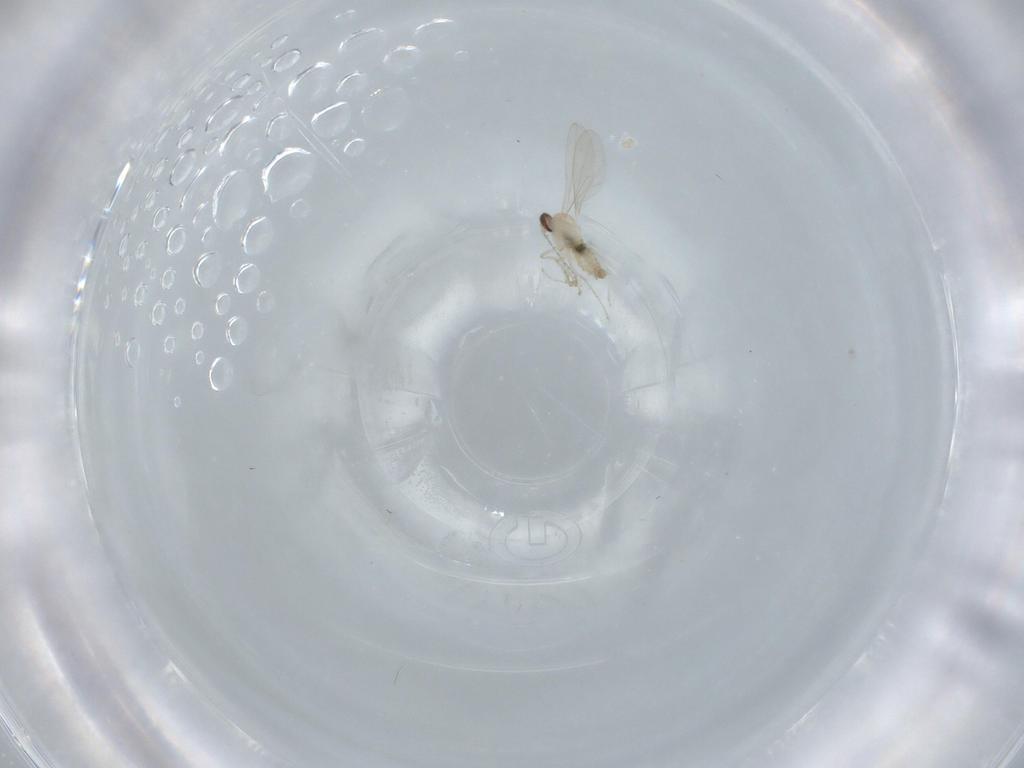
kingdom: Animalia
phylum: Arthropoda
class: Insecta
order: Diptera
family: Cecidomyiidae
